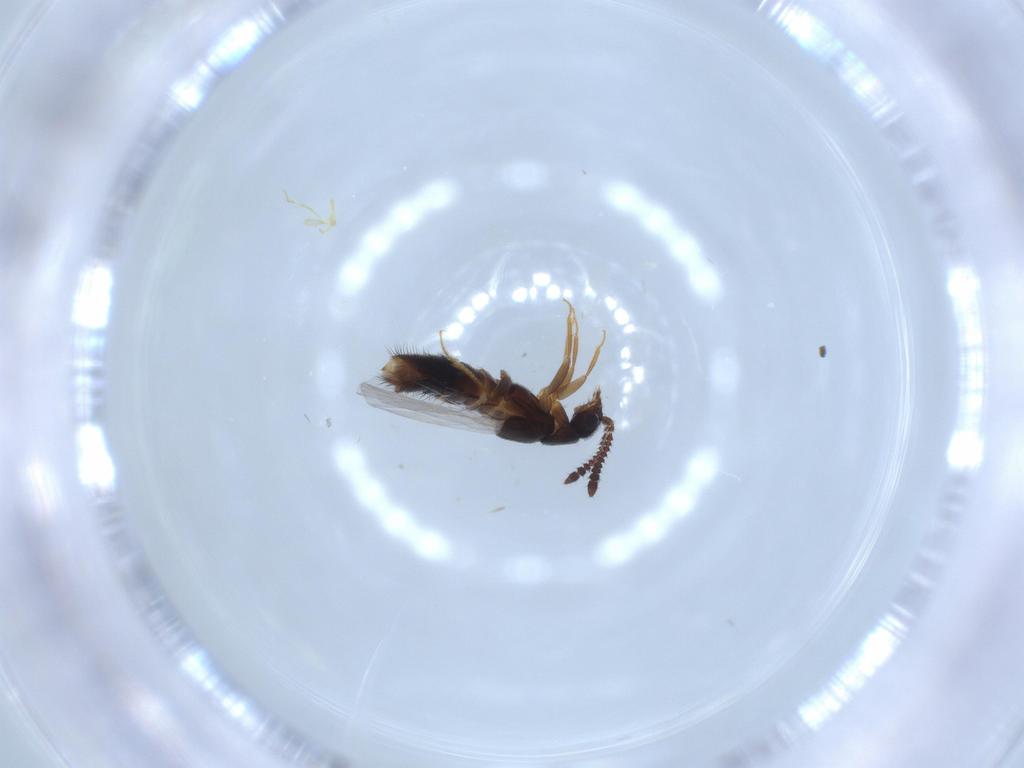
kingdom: Animalia
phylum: Arthropoda
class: Insecta
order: Coleoptera
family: Staphylinidae
